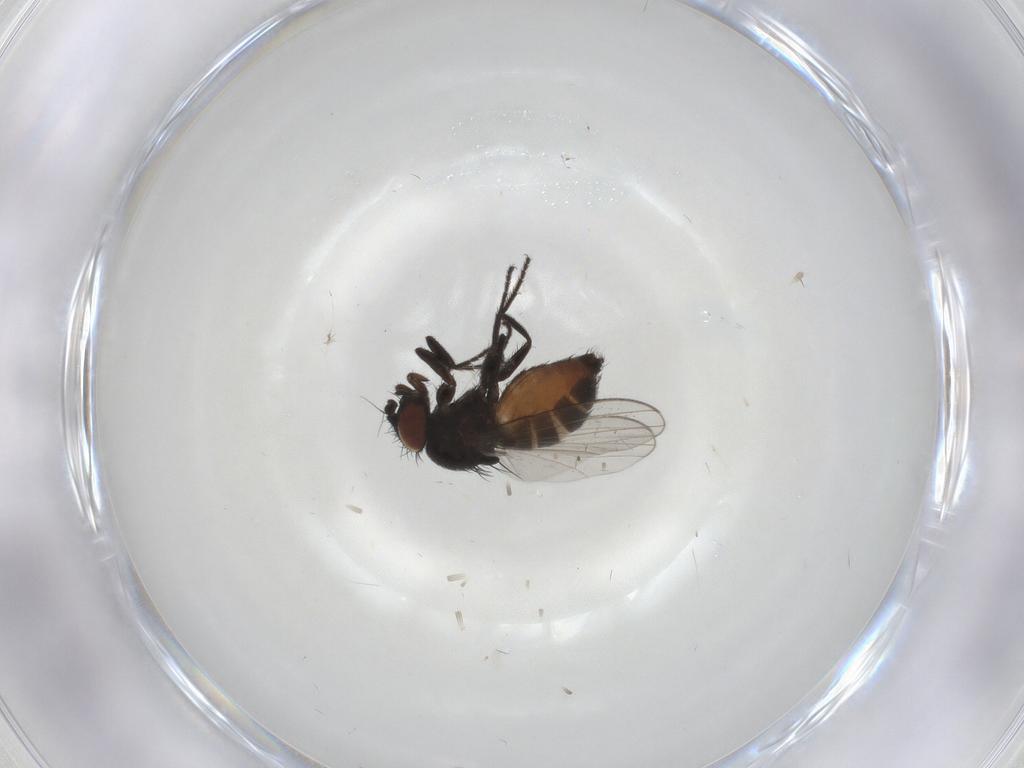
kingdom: Animalia
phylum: Arthropoda
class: Insecta
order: Diptera
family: Milichiidae
